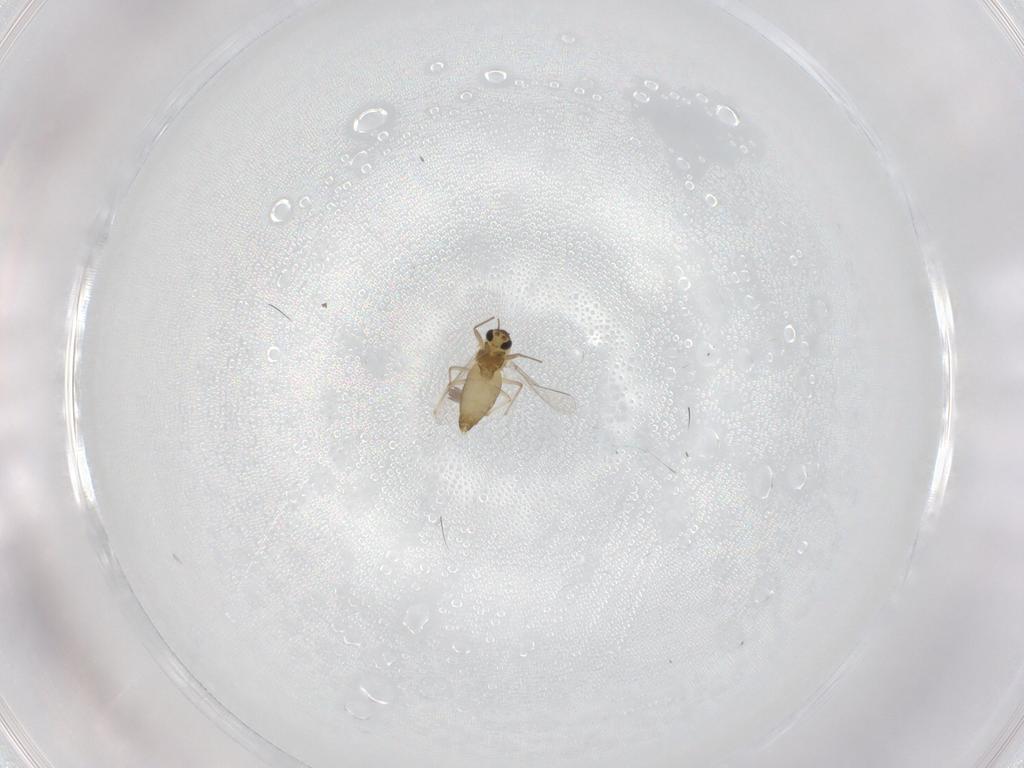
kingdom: Animalia
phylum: Arthropoda
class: Insecta
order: Diptera
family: Chironomidae
